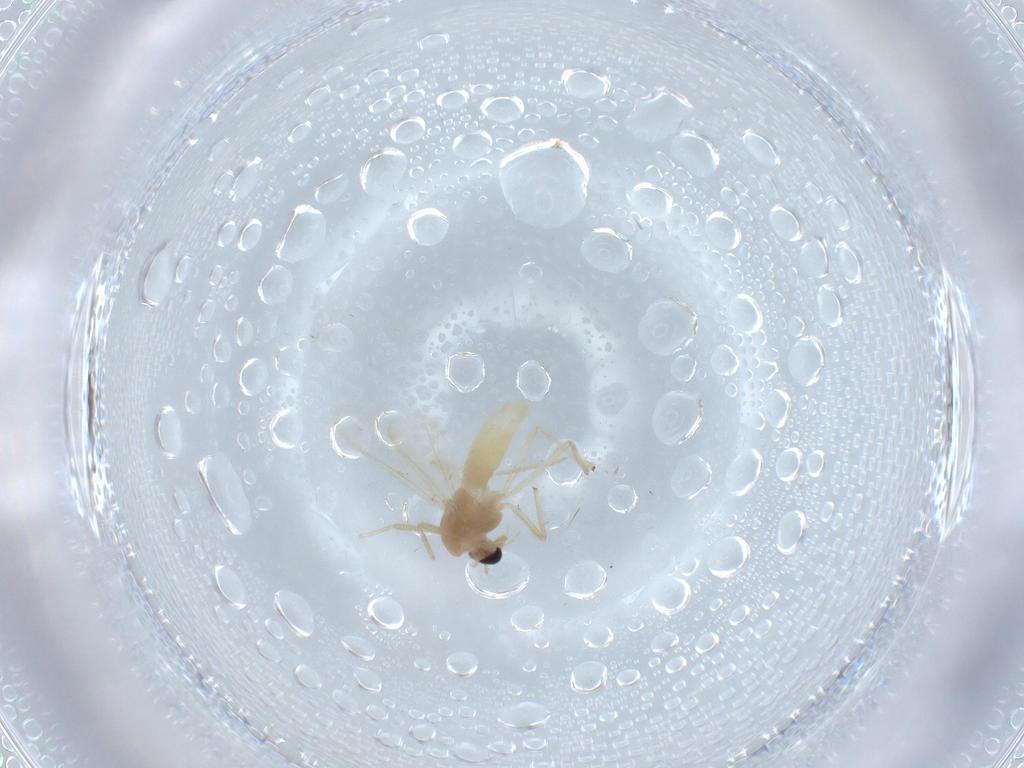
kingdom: Animalia
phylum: Arthropoda
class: Insecta
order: Diptera
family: Chironomidae
